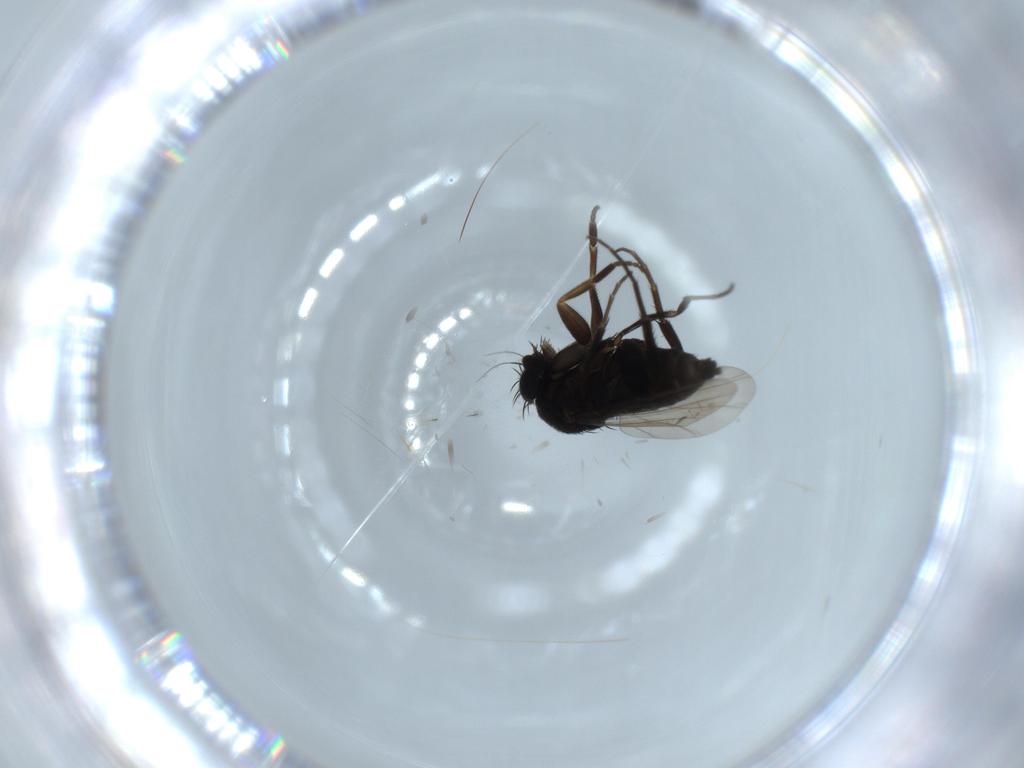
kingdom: Animalia
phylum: Arthropoda
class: Insecta
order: Diptera
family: Phoridae
